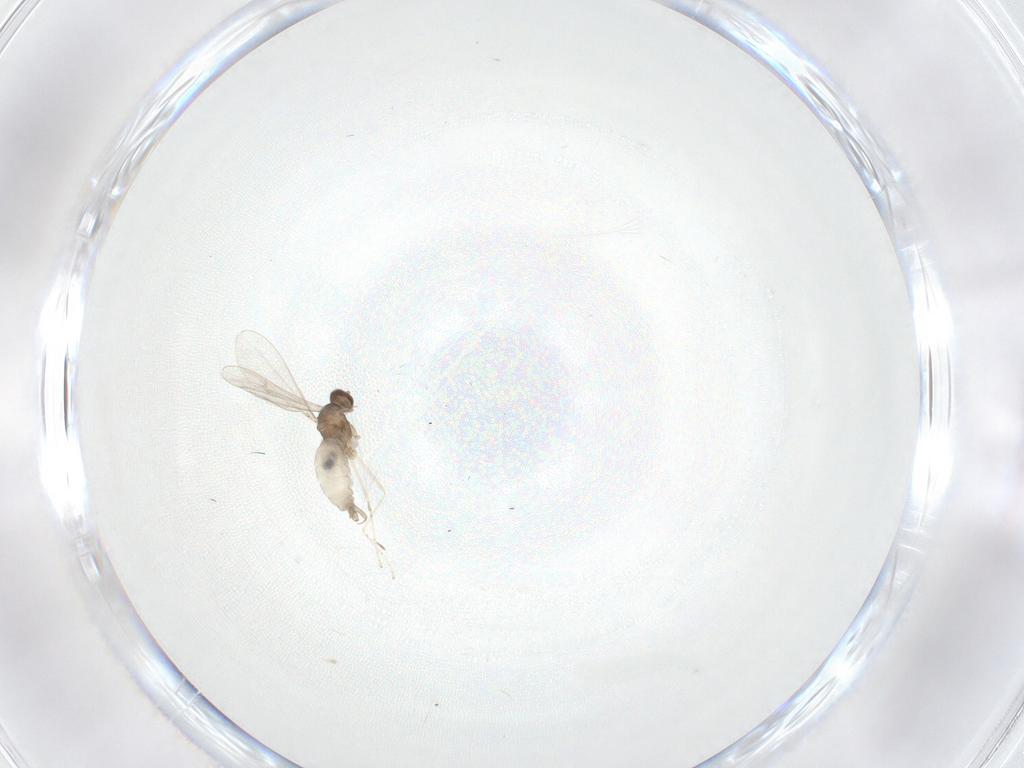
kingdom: Animalia
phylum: Arthropoda
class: Insecta
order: Diptera
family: Cecidomyiidae
